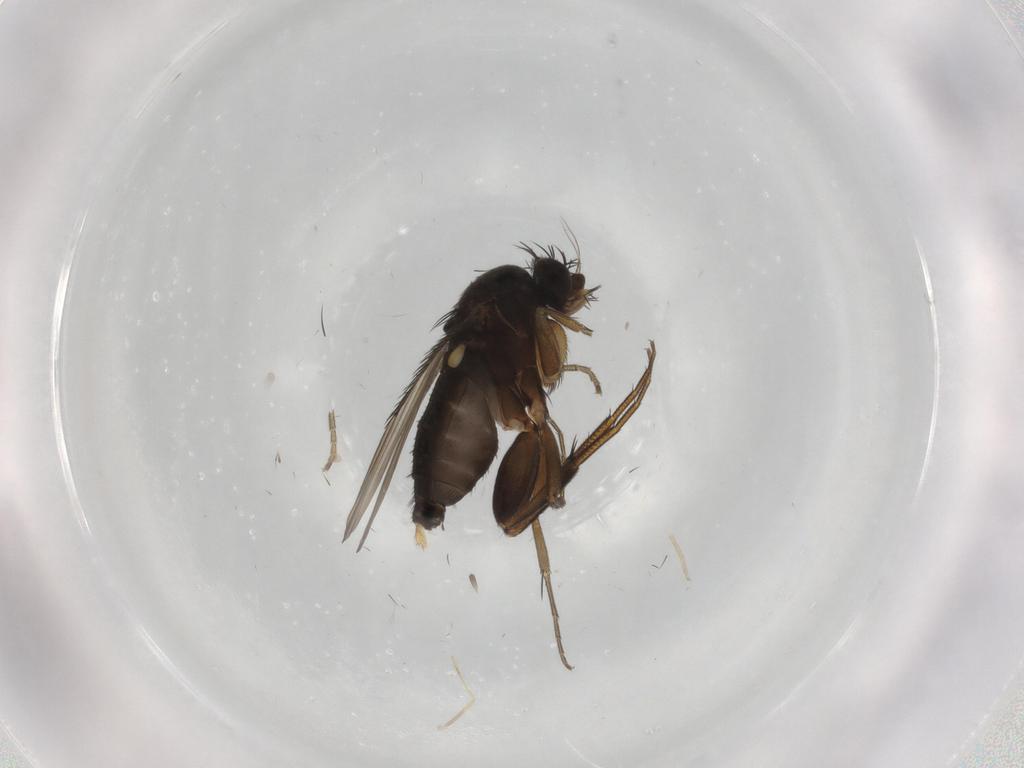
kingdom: Animalia
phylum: Arthropoda
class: Insecta
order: Diptera
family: Phoridae
